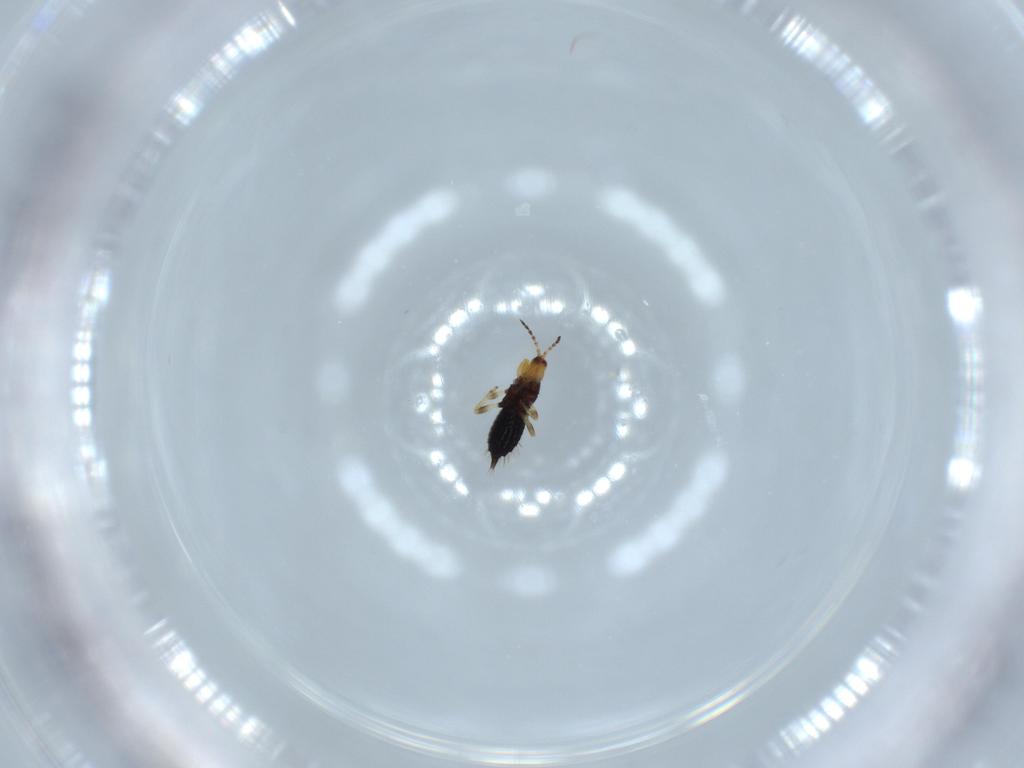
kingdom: Animalia
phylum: Arthropoda
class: Insecta
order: Thysanoptera
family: Phlaeothripidae
